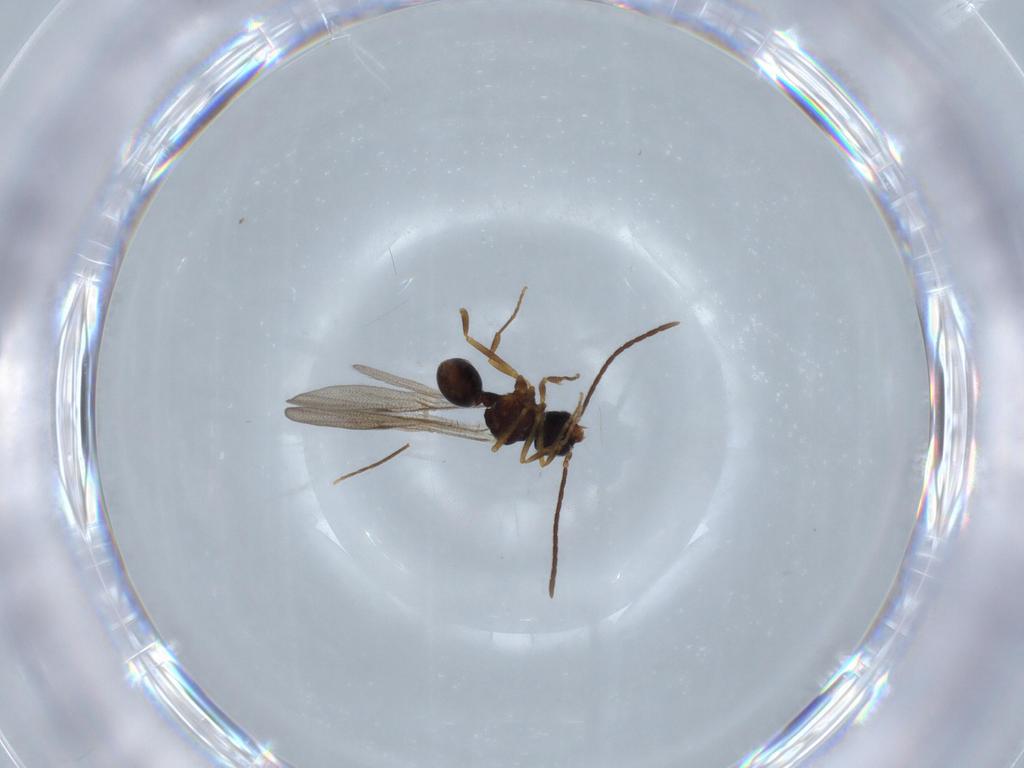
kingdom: Animalia
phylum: Arthropoda
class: Insecta
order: Hymenoptera
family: Formicidae
